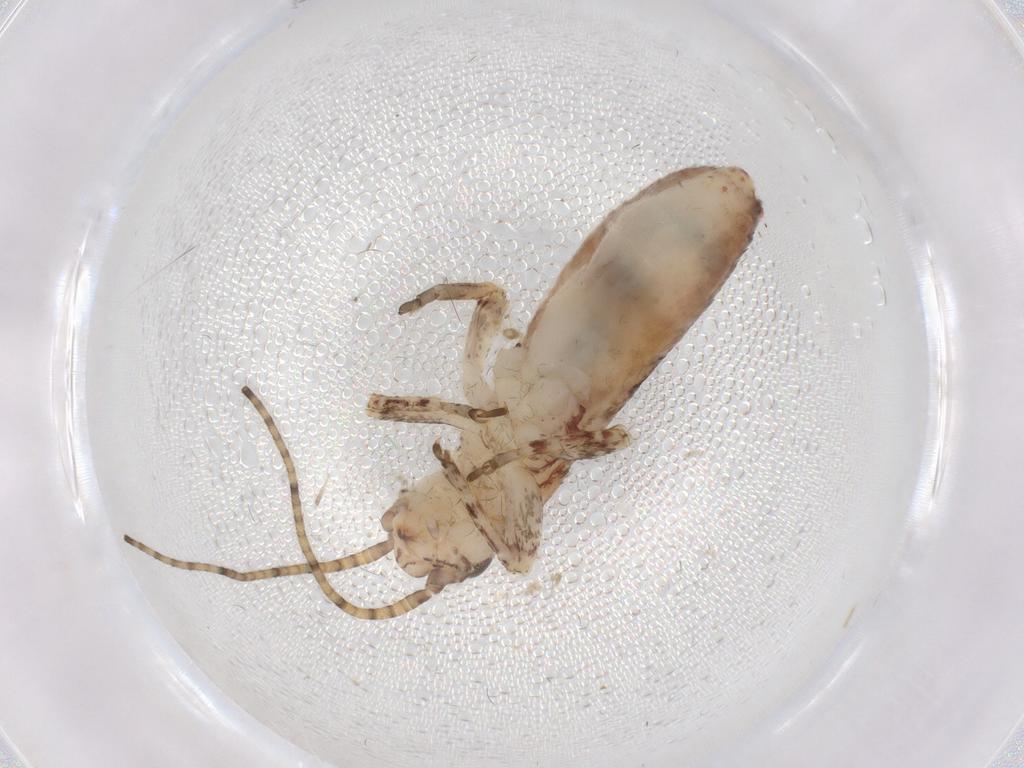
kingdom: Animalia
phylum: Arthropoda
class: Insecta
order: Orthoptera
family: Mogoplistidae
